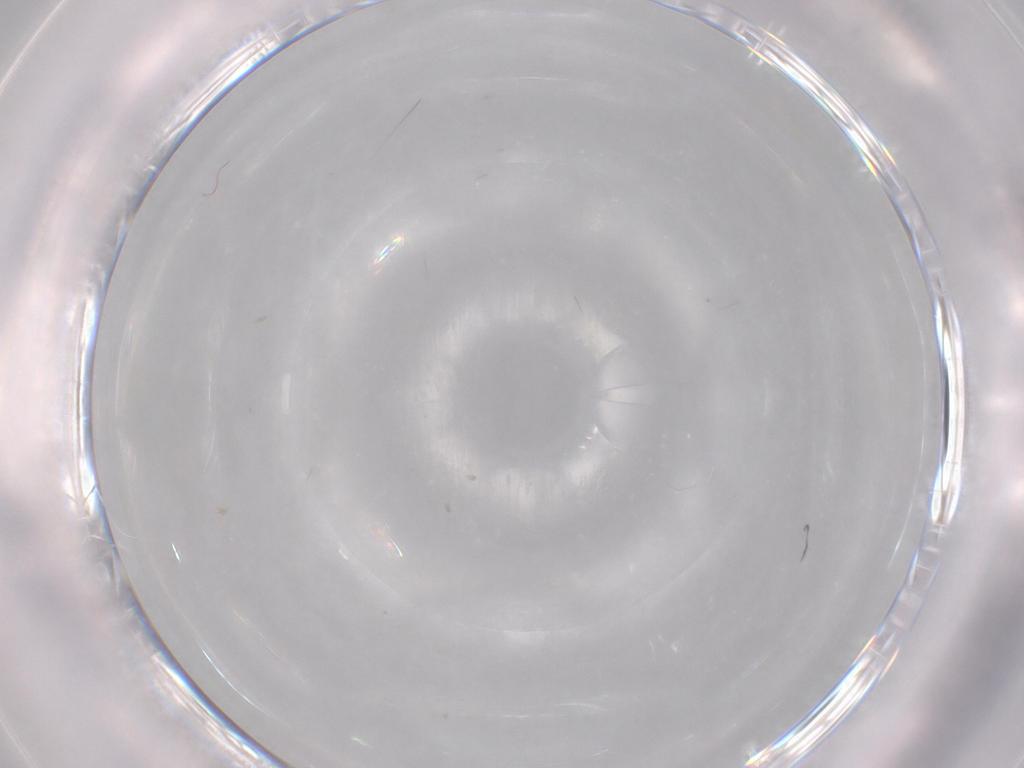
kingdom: Animalia
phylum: Arthropoda
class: Insecta
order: Diptera
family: Cecidomyiidae
